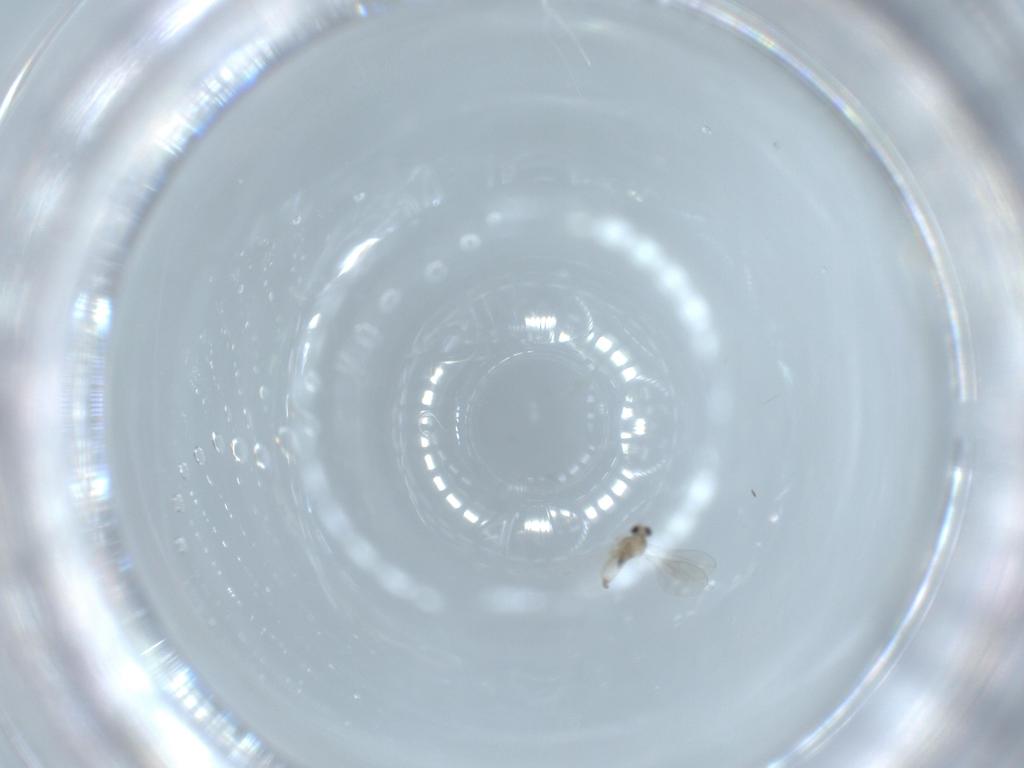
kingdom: Animalia
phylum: Arthropoda
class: Insecta
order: Diptera
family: Cecidomyiidae
